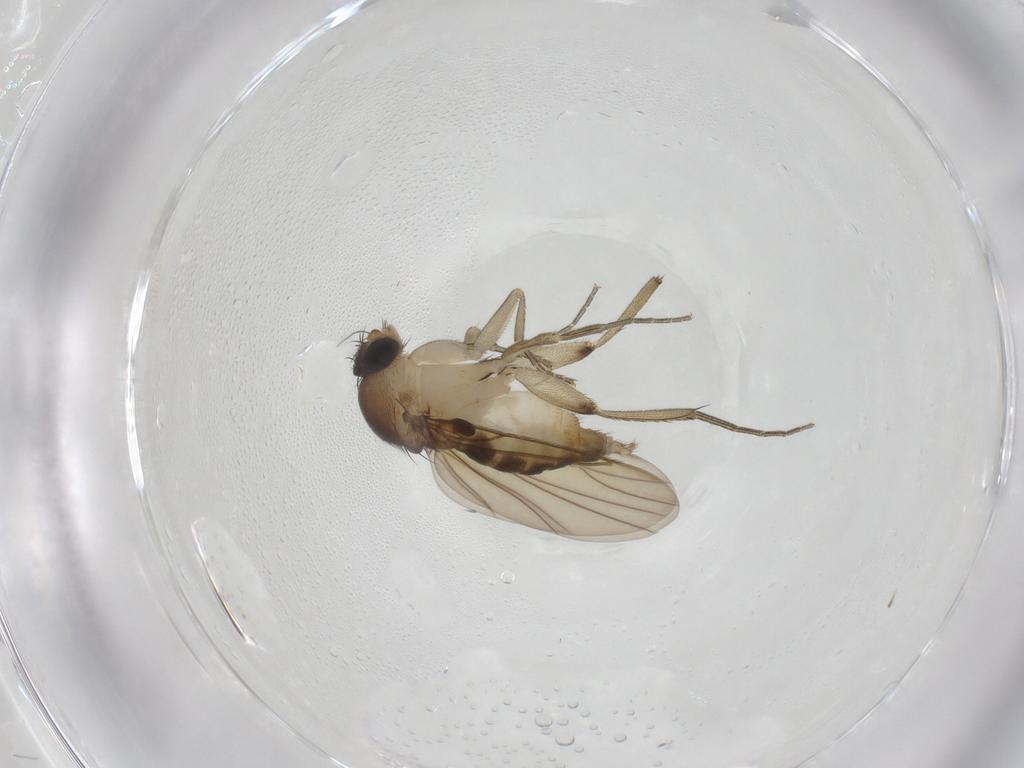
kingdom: Animalia
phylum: Arthropoda
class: Insecta
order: Diptera
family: Phoridae
